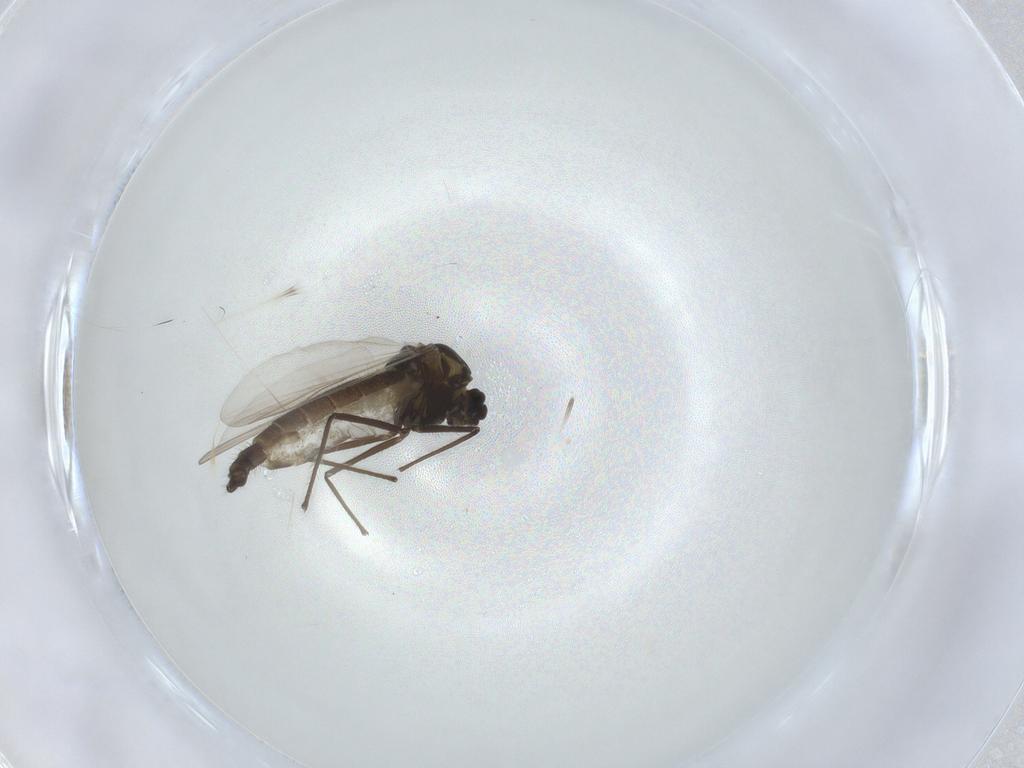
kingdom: Animalia
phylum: Arthropoda
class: Insecta
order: Diptera
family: Chironomidae
